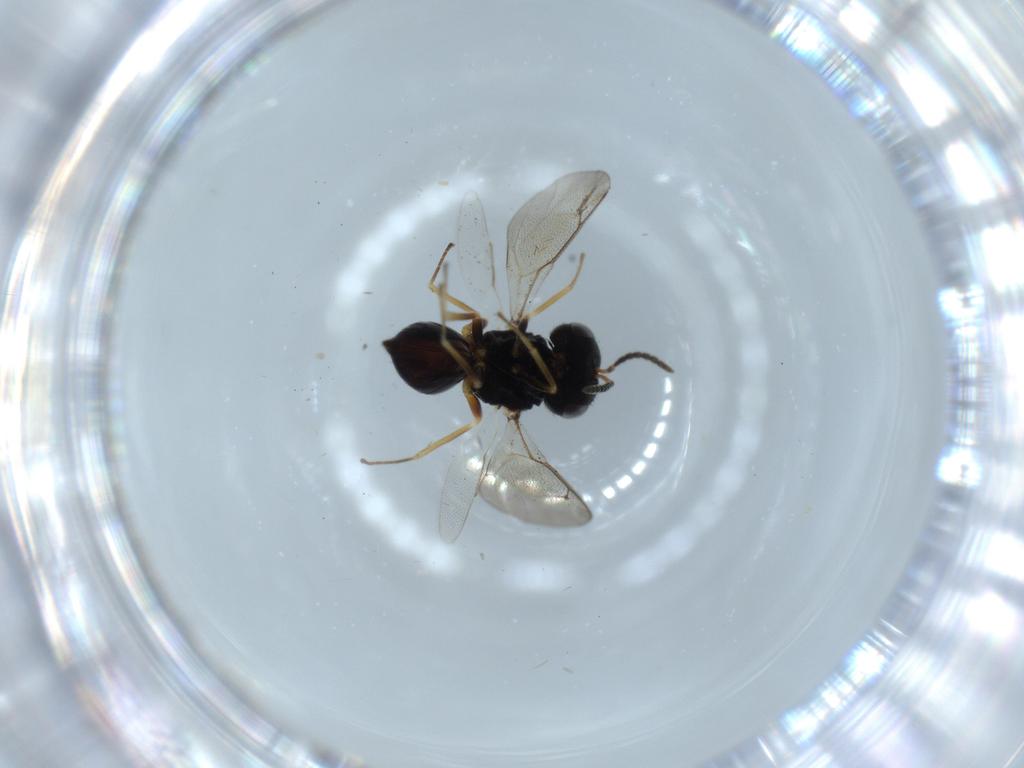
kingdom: Animalia
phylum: Arthropoda
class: Insecta
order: Hymenoptera
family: Pteromalidae
